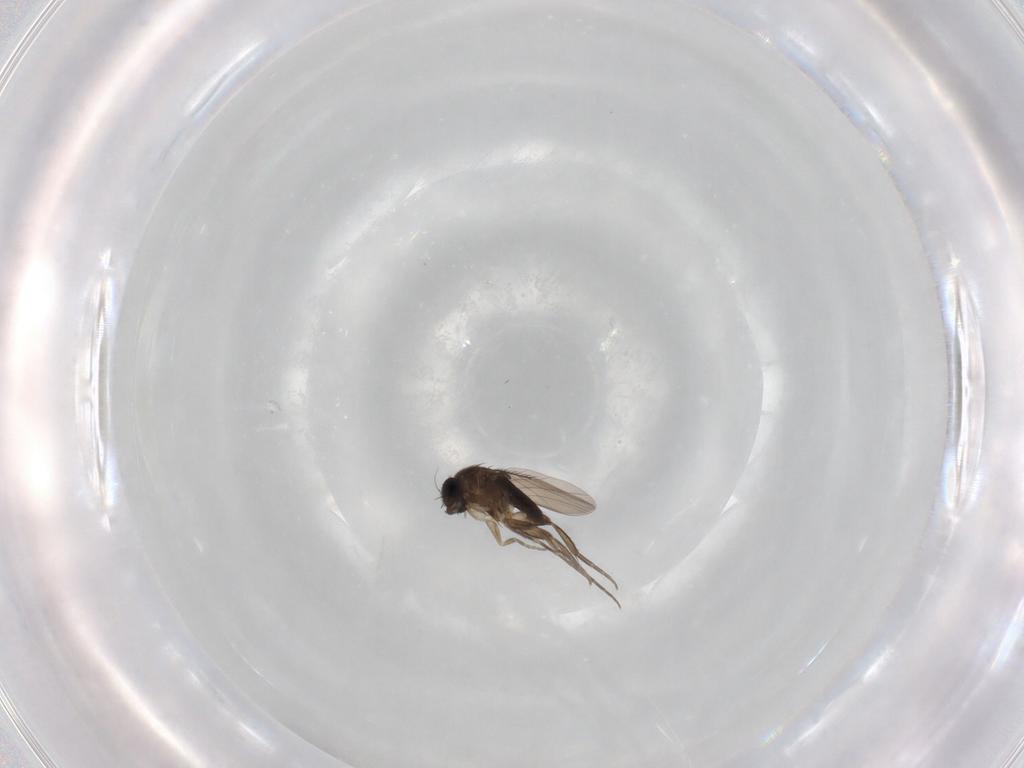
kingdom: Animalia
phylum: Arthropoda
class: Insecta
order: Diptera
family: Phoridae
